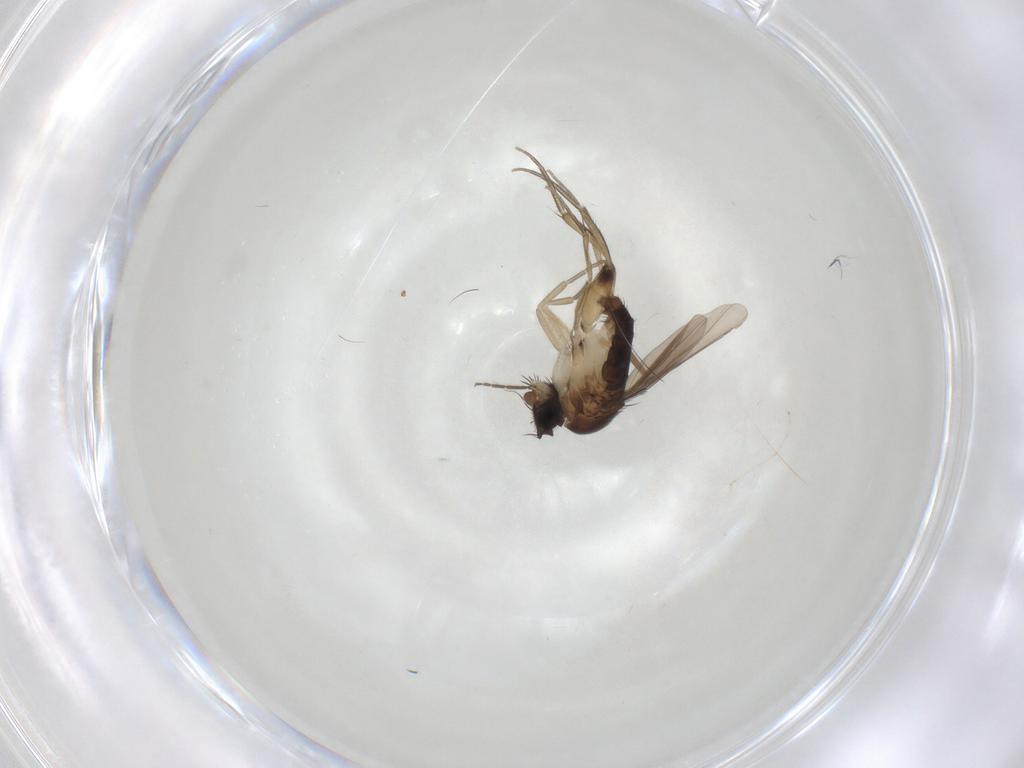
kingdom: Animalia
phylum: Arthropoda
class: Insecta
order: Diptera
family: Phoridae
